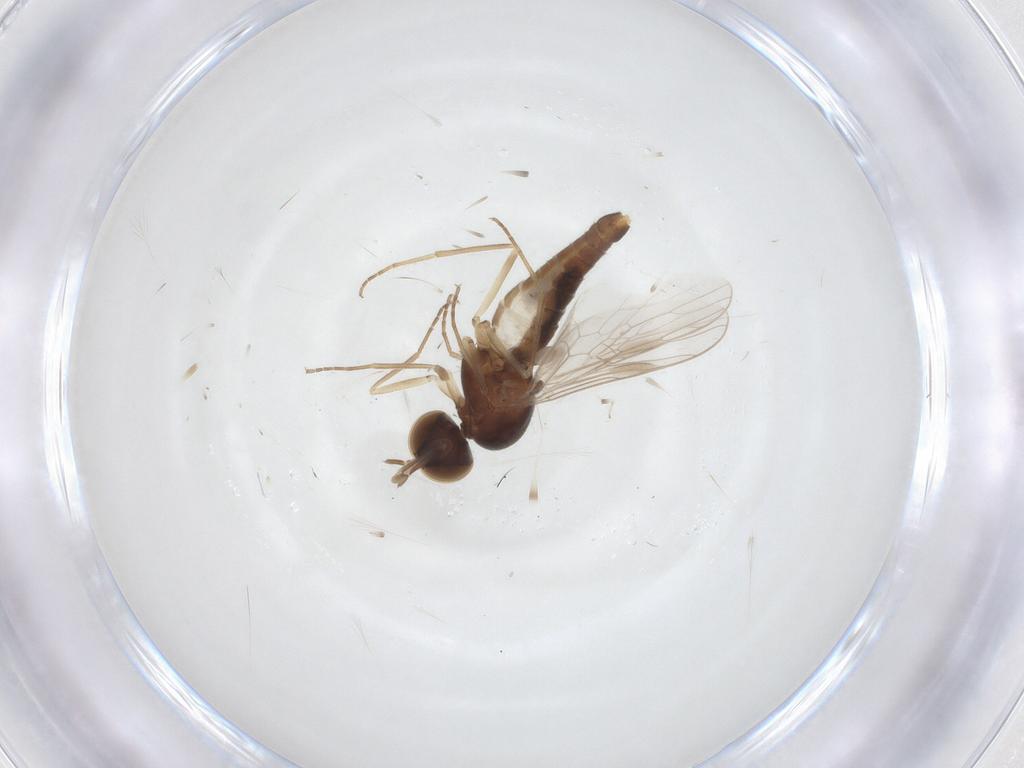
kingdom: Animalia
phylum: Arthropoda
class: Insecta
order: Diptera
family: Scenopinidae
